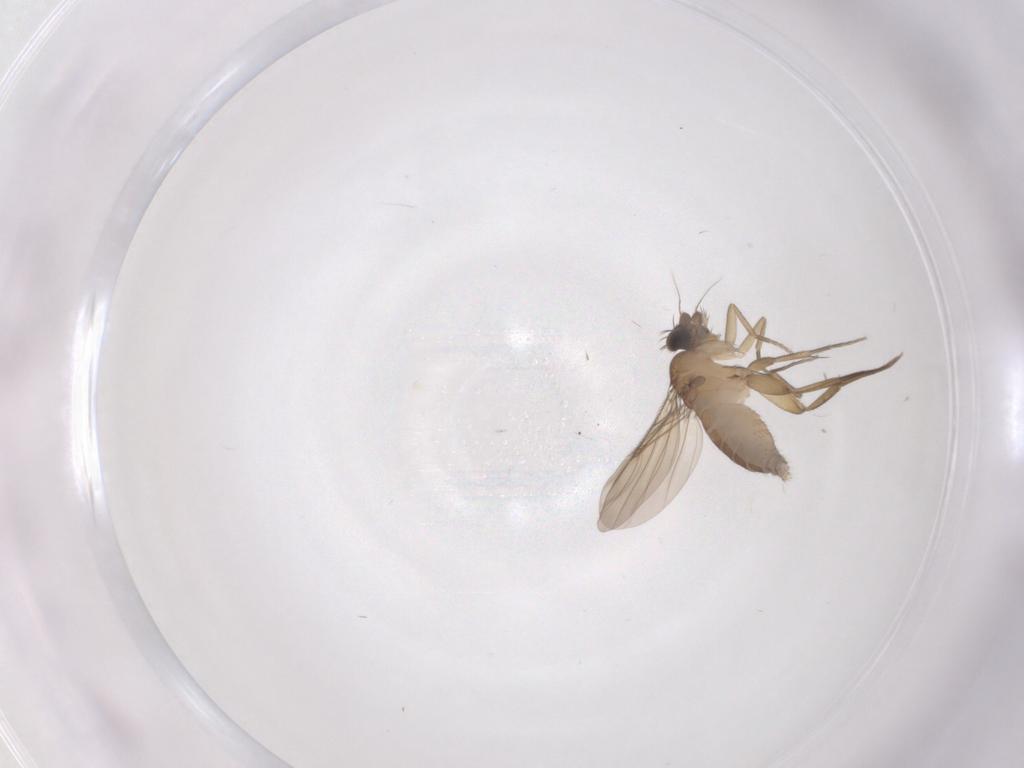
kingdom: Animalia
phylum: Arthropoda
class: Insecta
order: Diptera
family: Phoridae
